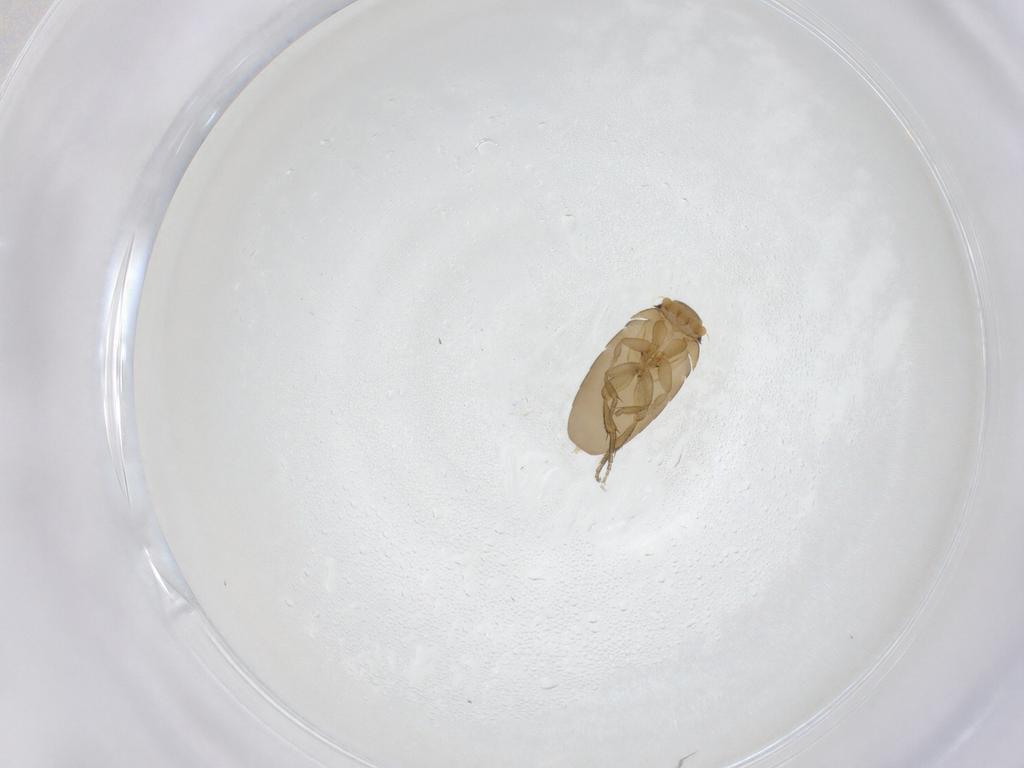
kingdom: Animalia
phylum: Arthropoda
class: Insecta
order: Diptera
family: Phoridae
